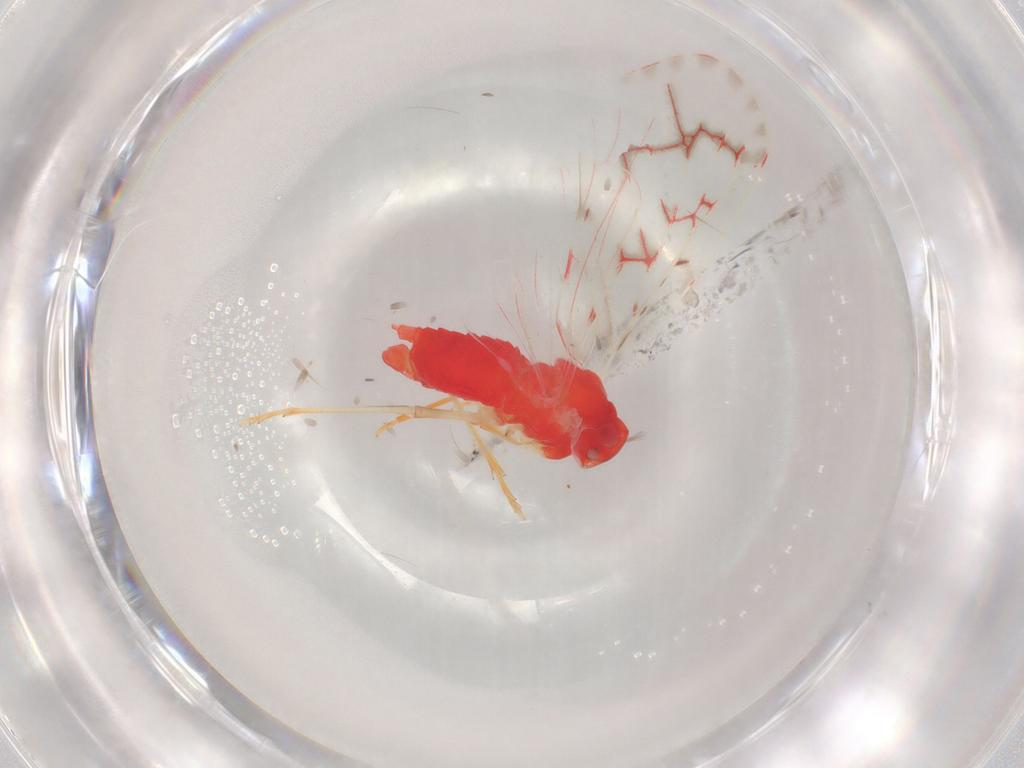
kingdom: Animalia
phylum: Arthropoda
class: Insecta
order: Hemiptera
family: Derbidae
